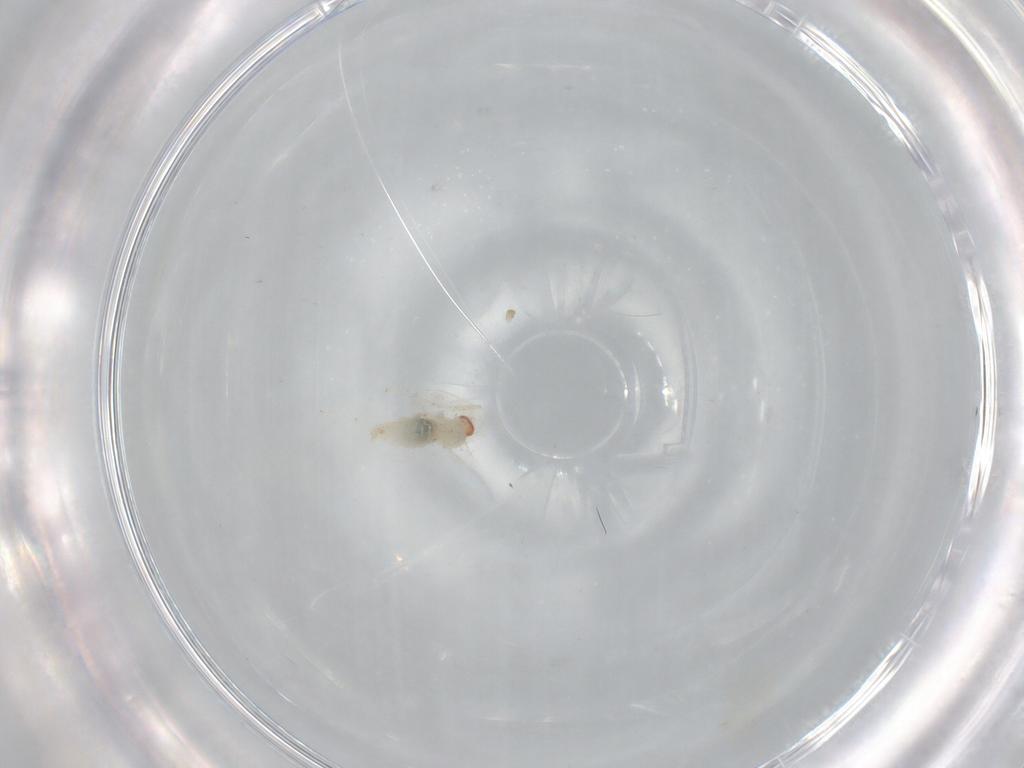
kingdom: Animalia
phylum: Arthropoda
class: Insecta
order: Diptera
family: Cecidomyiidae
